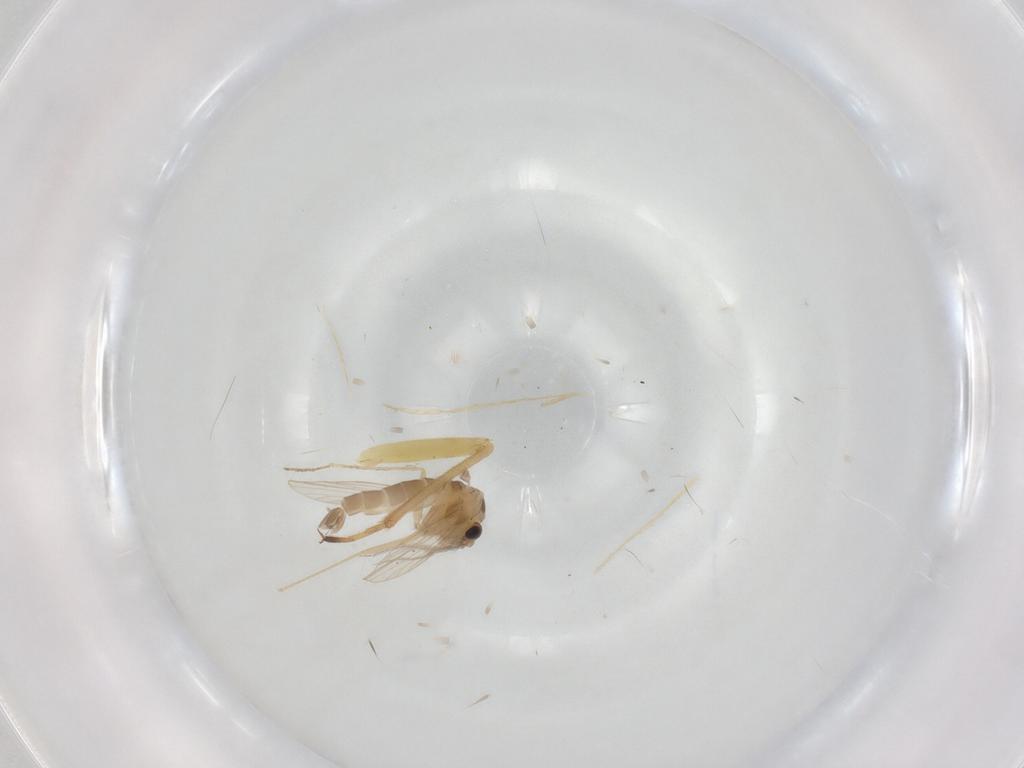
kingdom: Animalia
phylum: Arthropoda
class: Insecta
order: Diptera
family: Psychodidae
